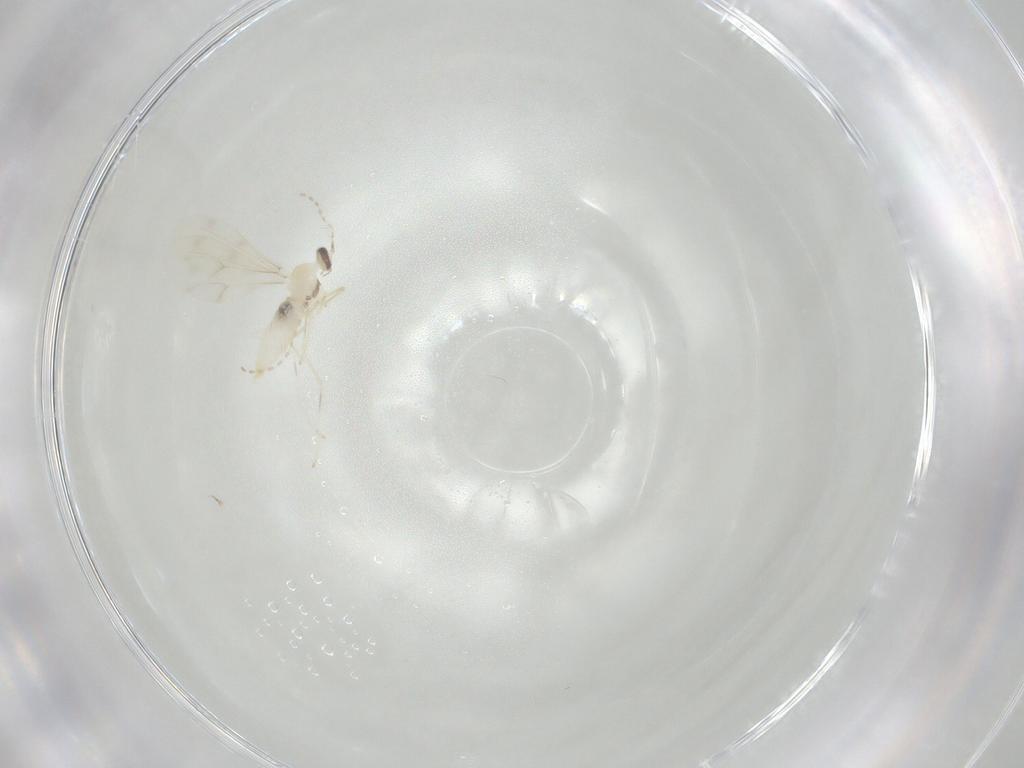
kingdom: Animalia
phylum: Arthropoda
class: Insecta
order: Diptera
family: Cecidomyiidae
